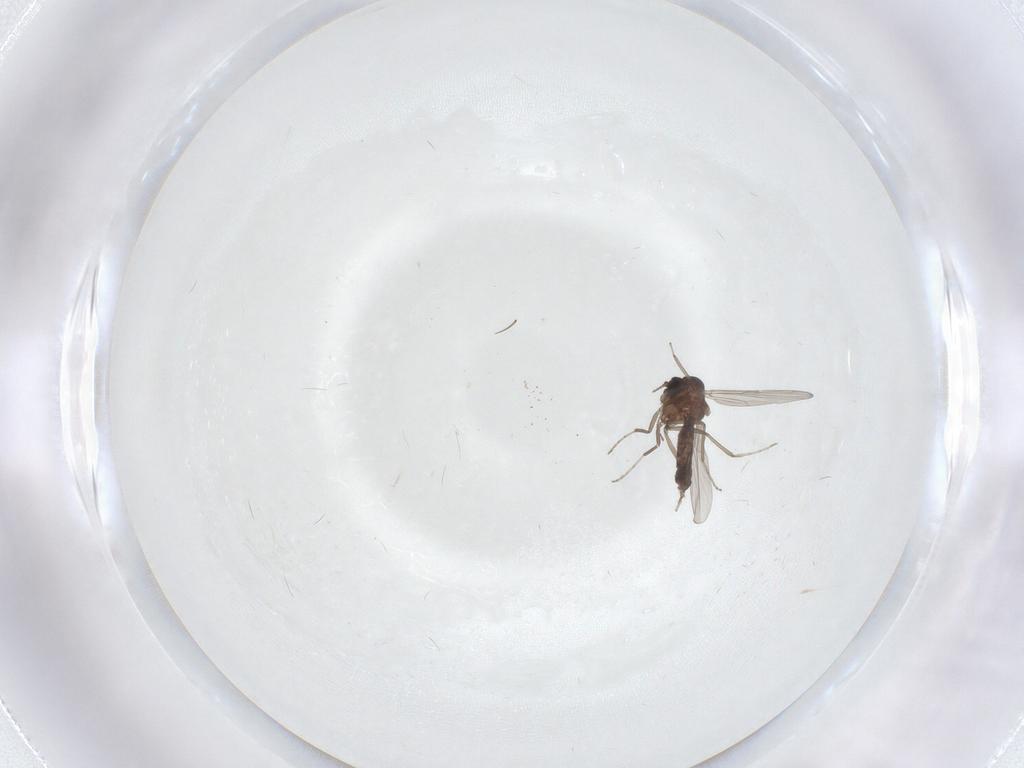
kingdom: Animalia
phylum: Arthropoda
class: Insecta
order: Diptera
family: Ceratopogonidae
